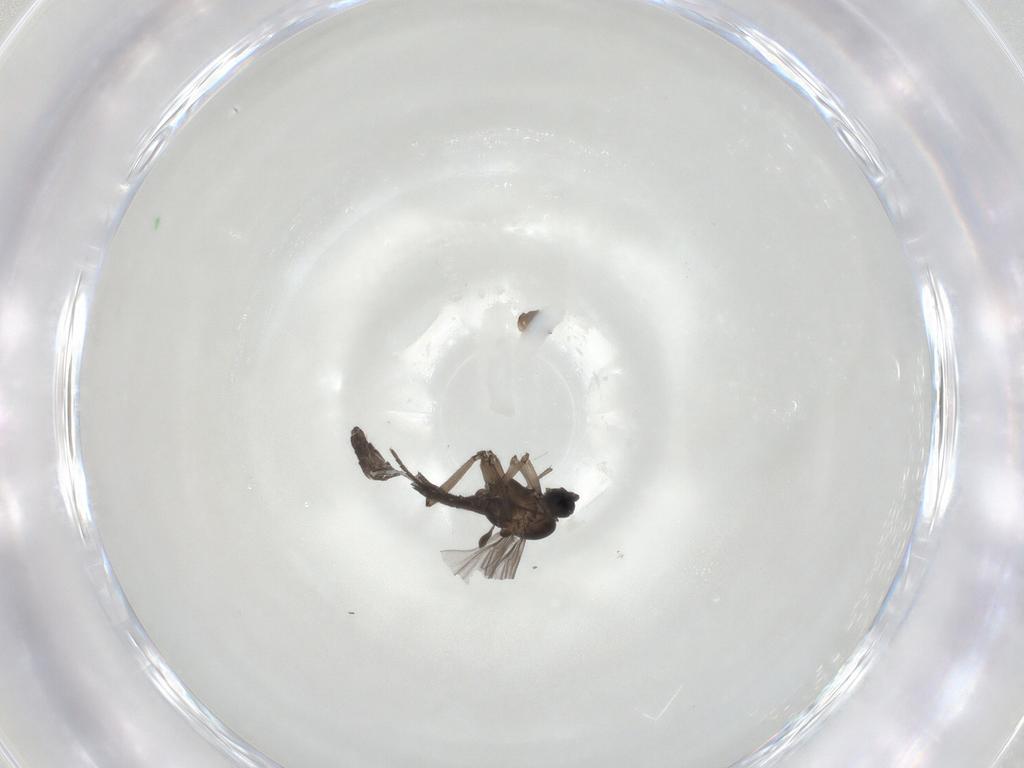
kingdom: Animalia
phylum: Arthropoda
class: Insecta
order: Diptera
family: Sciaridae
